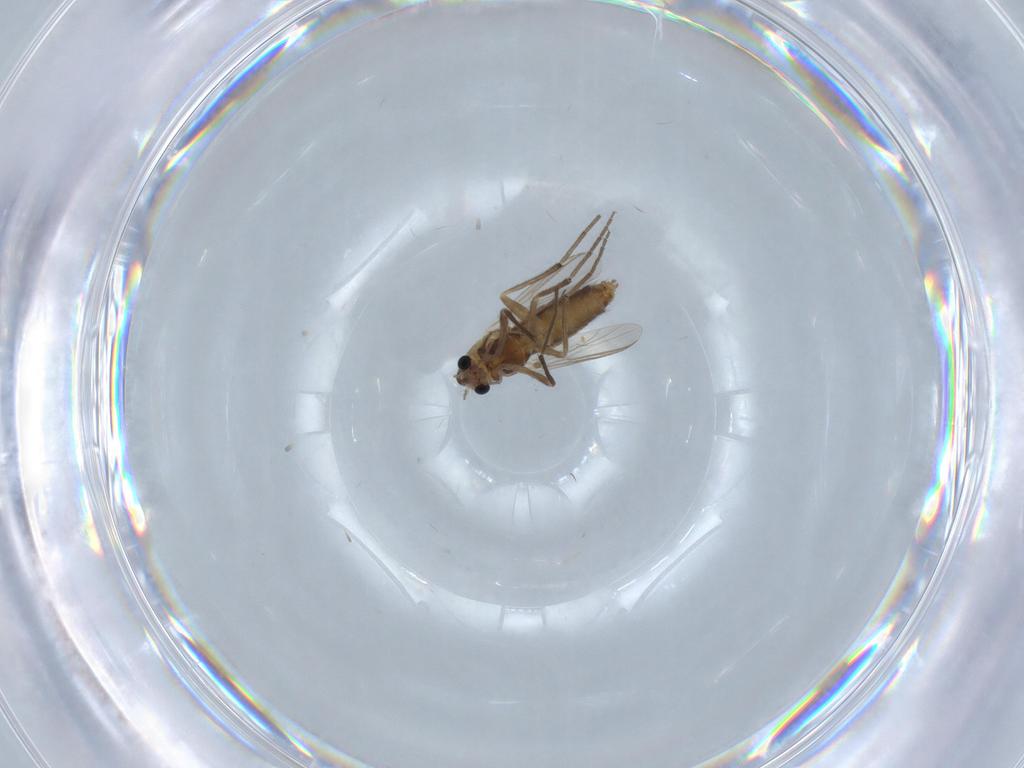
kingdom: Animalia
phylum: Arthropoda
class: Insecta
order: Diptera
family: Chironomidae
